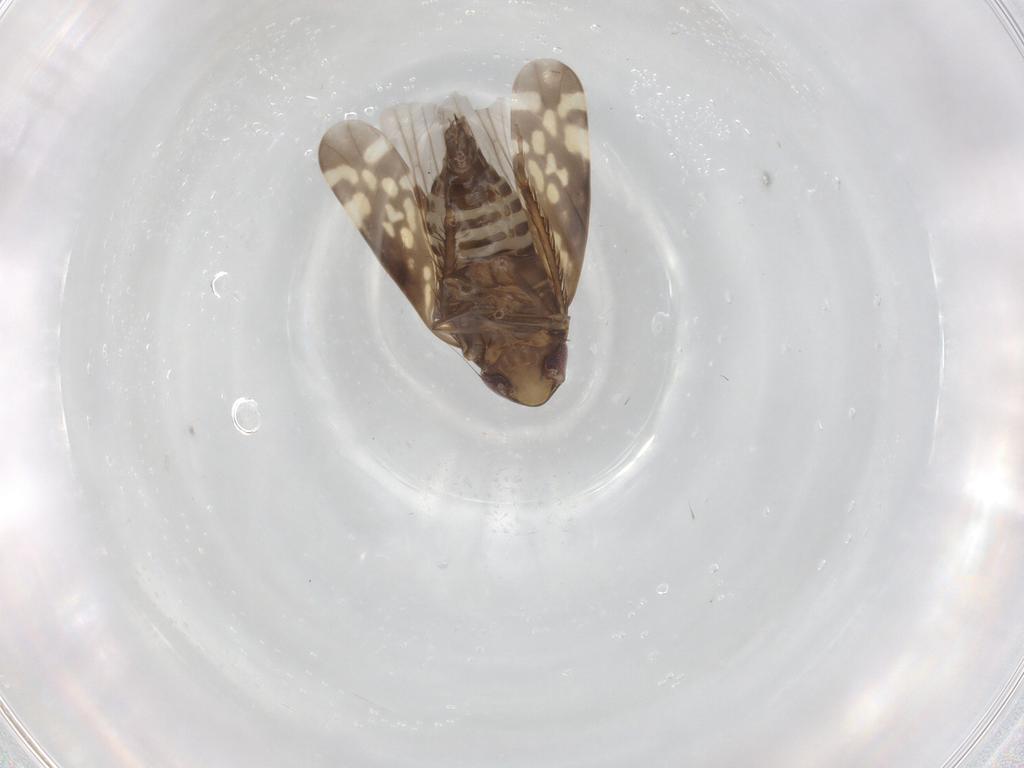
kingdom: Animalia
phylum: Arthropoda
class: Insecta
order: Hemiptera
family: Cicadellidae
